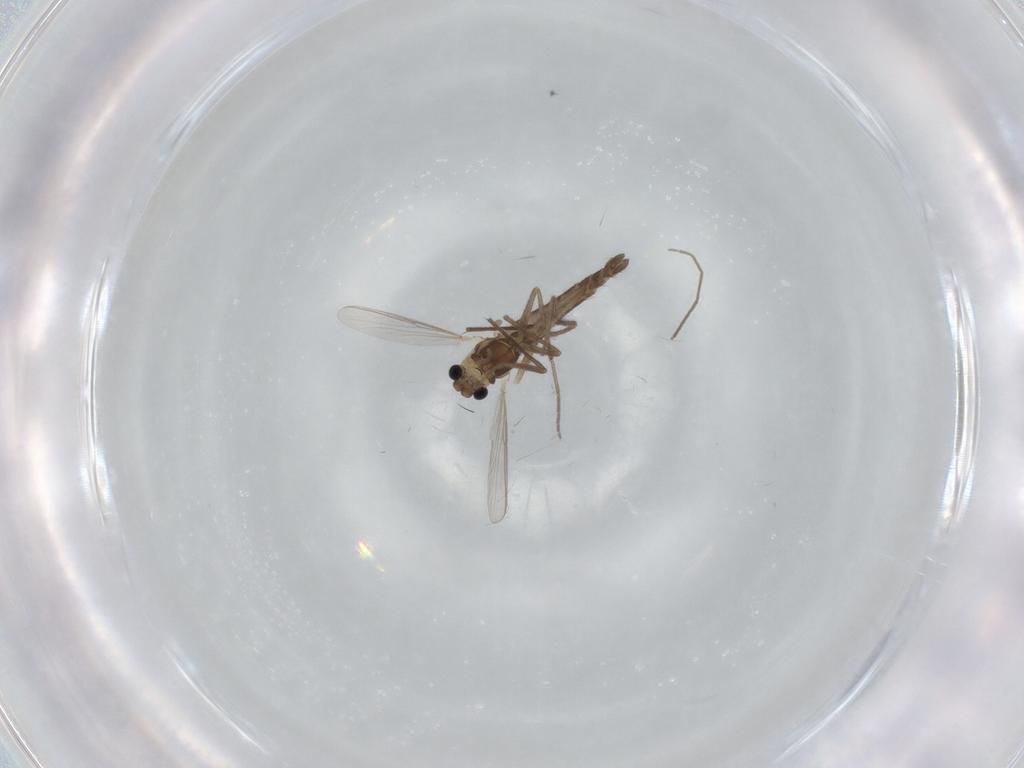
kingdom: Animalia
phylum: Arthropoda
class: Insecta
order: Diptera
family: Chironomidae
